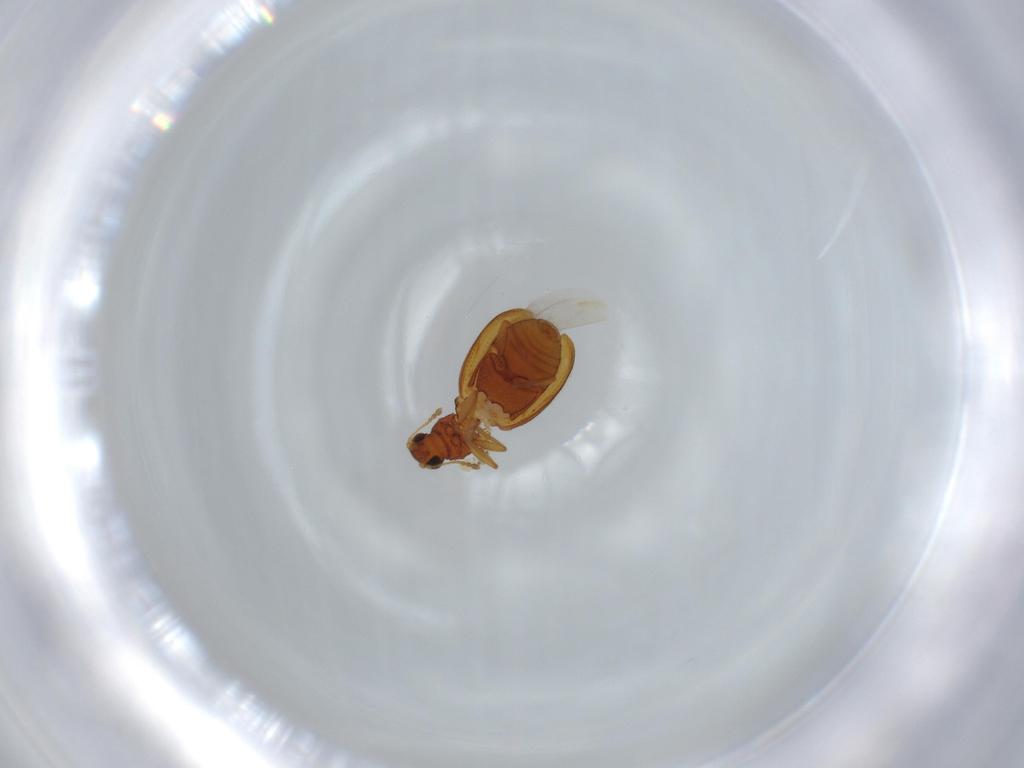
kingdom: Animalia
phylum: Arthropoda
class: Insecta
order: Coleoptera
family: Latridiidae
